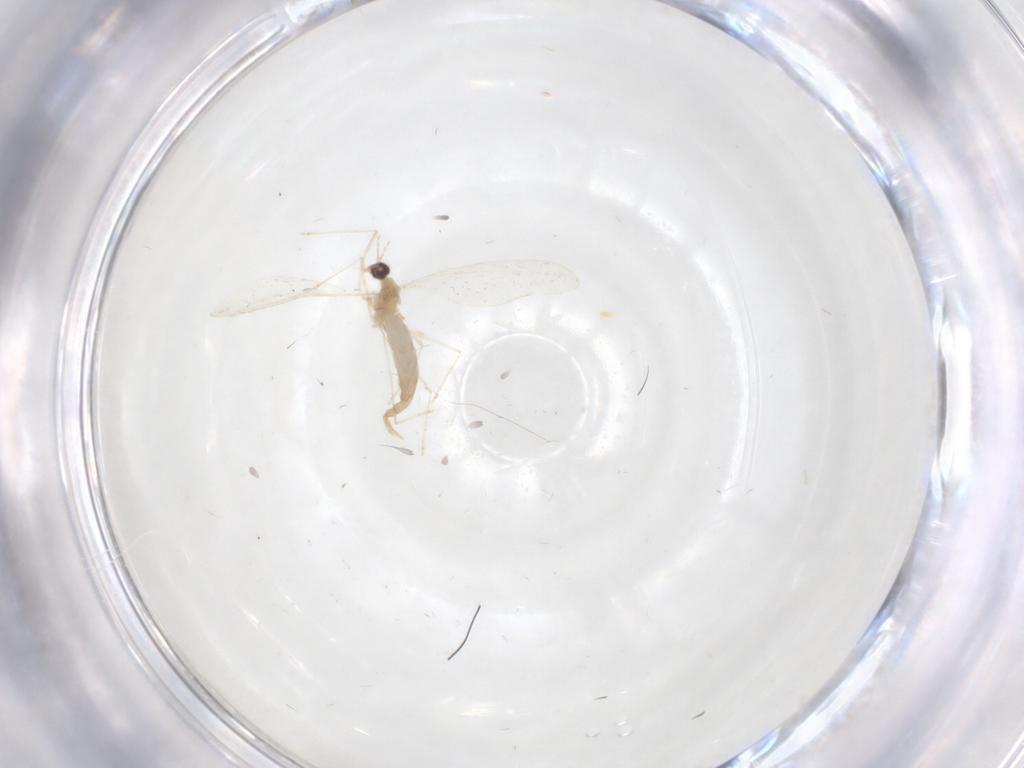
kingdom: Animalia
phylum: Arthropoda
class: Insecta
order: Diptera
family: Cecidomyiidae
